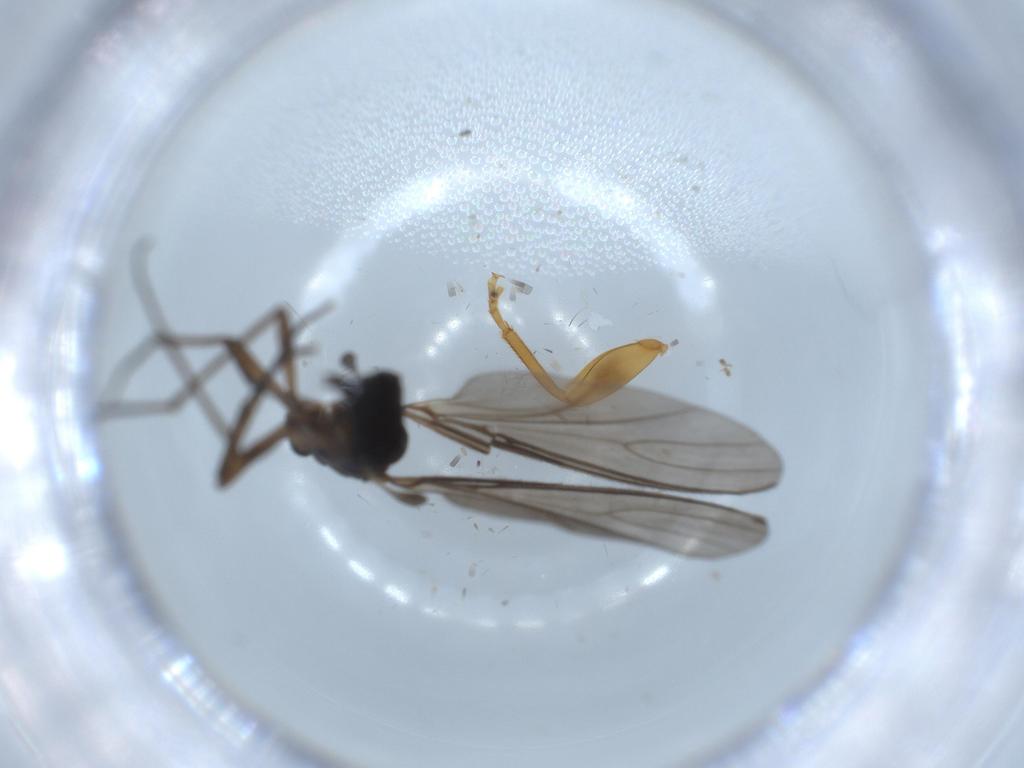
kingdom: Animalia
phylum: Arthropoda
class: Insecta
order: Diptera
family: Sciaridae
